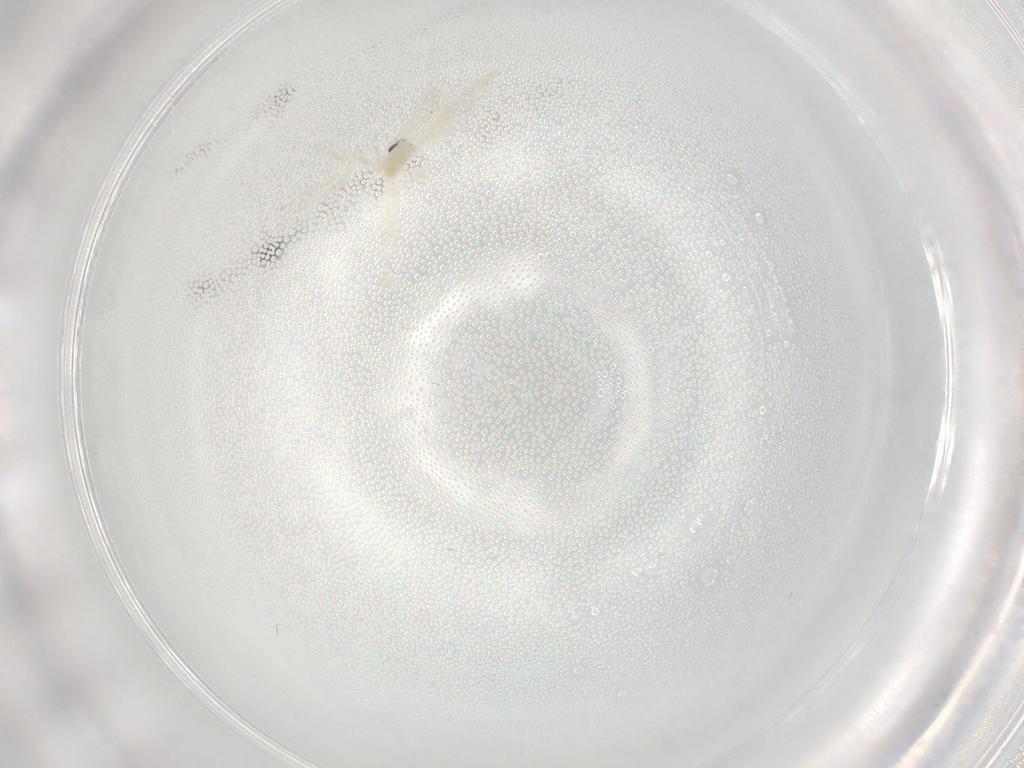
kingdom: Animalia
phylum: Arthropoda
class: Insecta
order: Diptera
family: Cecidomyiidae
